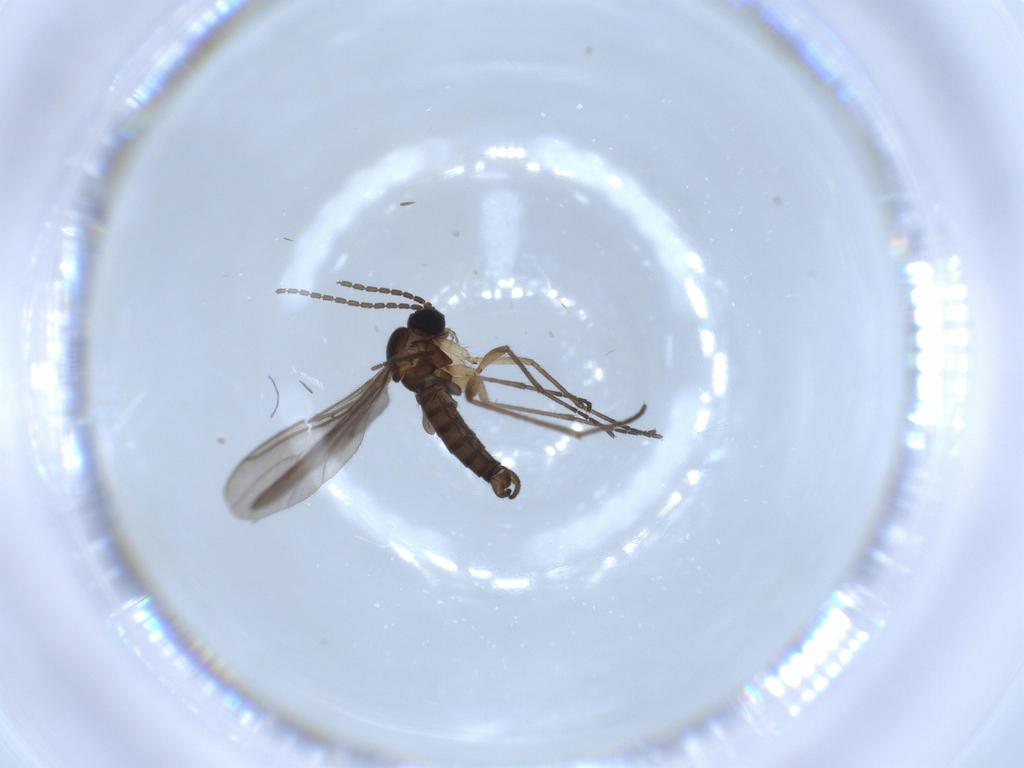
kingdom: Animalia
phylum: Arthropoda
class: Insecta
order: Diptera
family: Sciaridae
